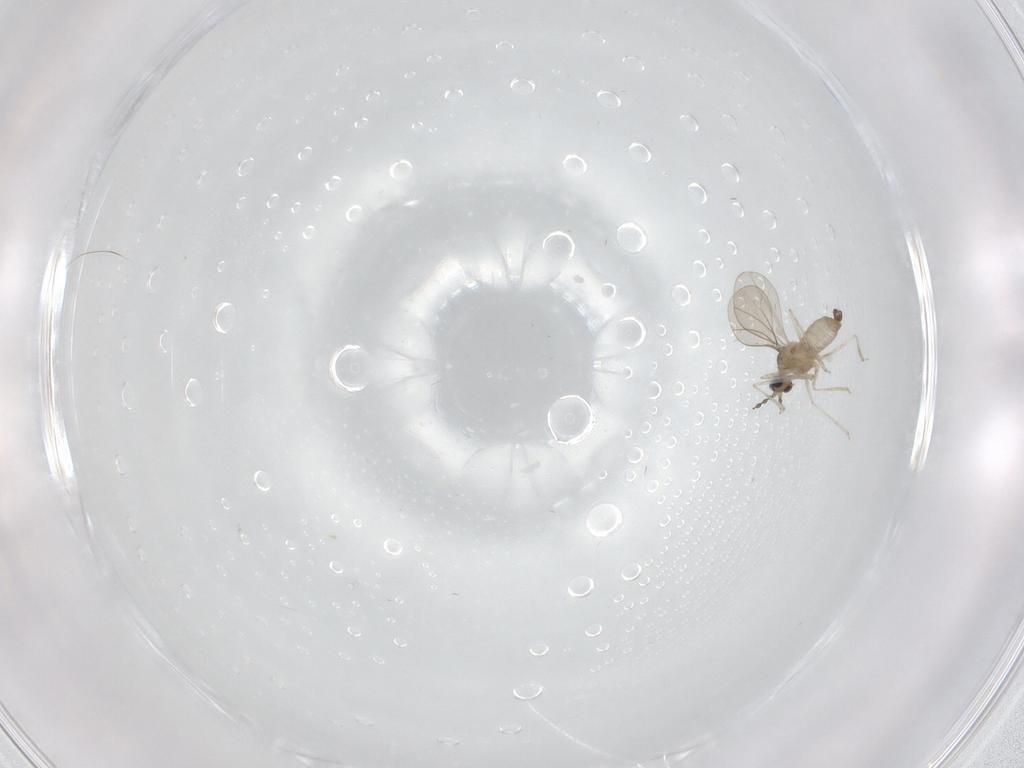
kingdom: Animalia
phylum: Arthropoda
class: Insecta
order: Diptera
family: Cecidomyiidae
